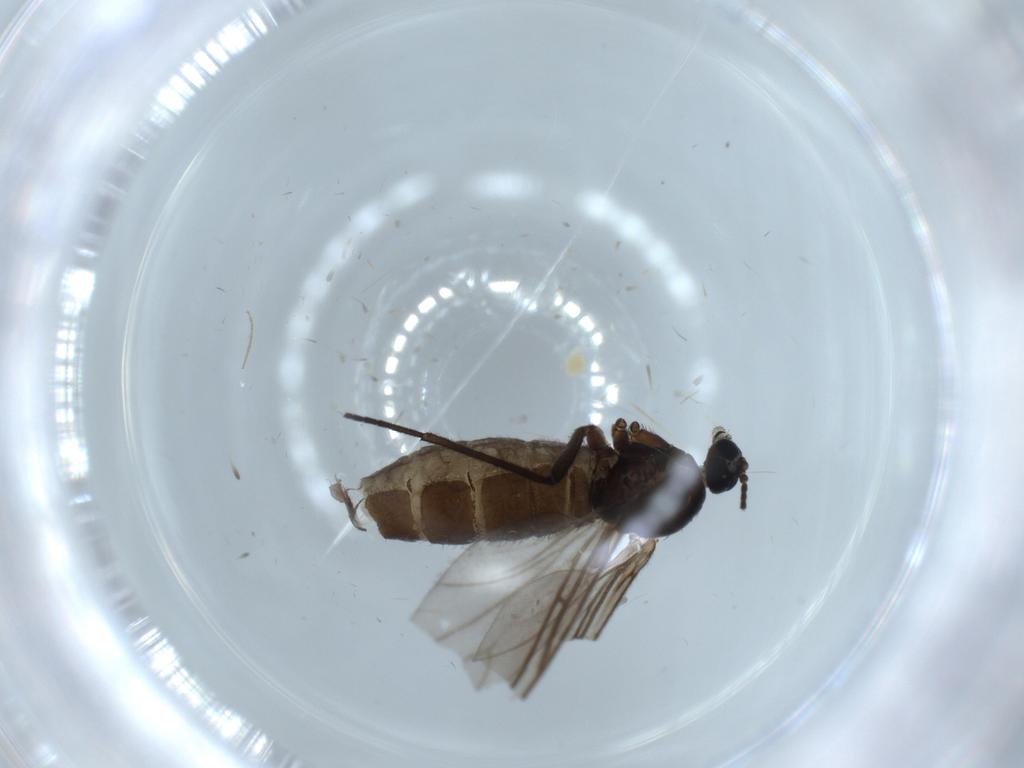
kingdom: Animalia
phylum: Arthropoda
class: Insecta
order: Diptera
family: Sciaridae
